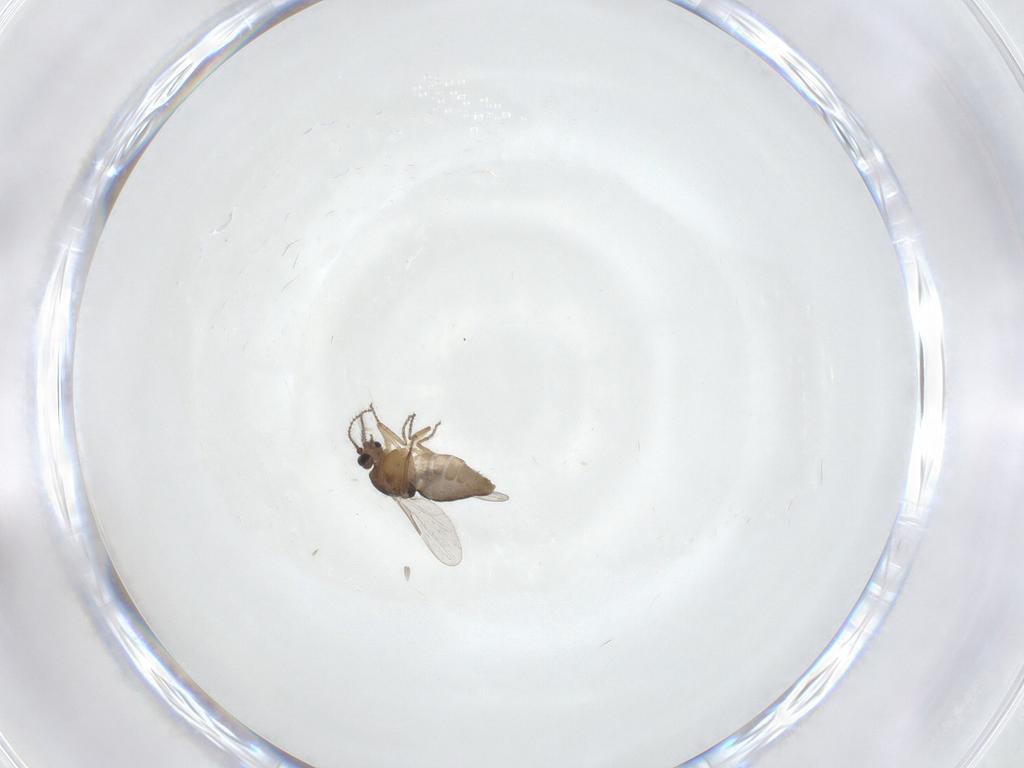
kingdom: Animalia
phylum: Arthropoda
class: Insecta
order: Diptera
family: Ceratopogonidae
